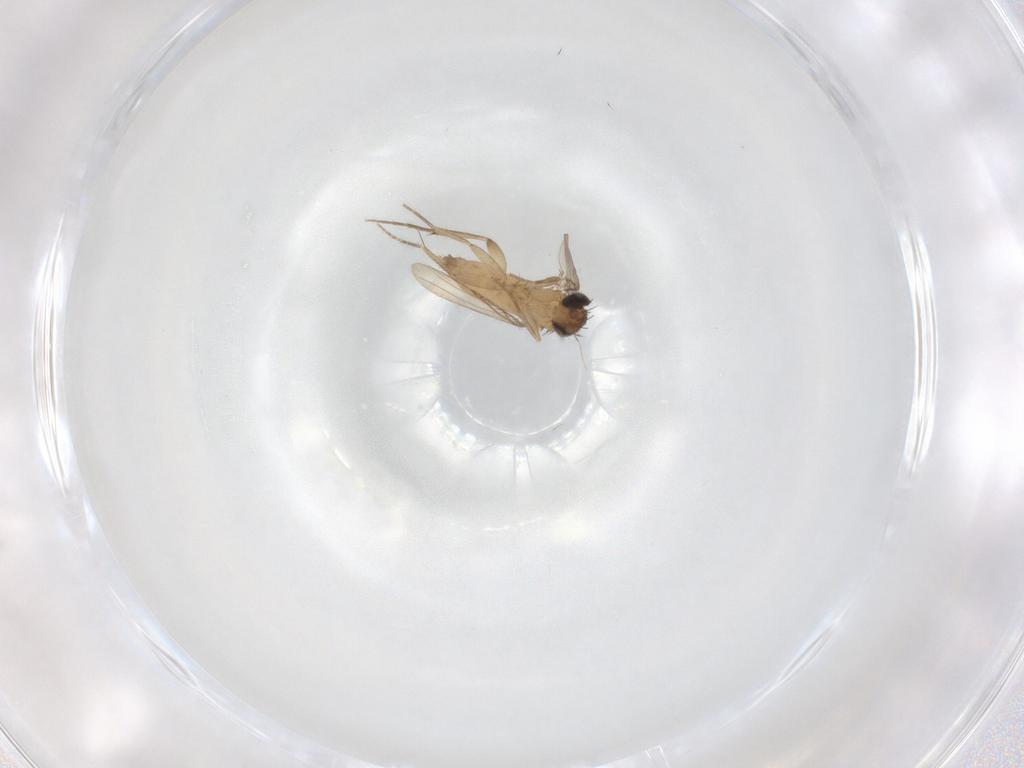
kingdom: Animalia
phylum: Arthropoda
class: Insecta
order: Diptera
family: Phoridae
